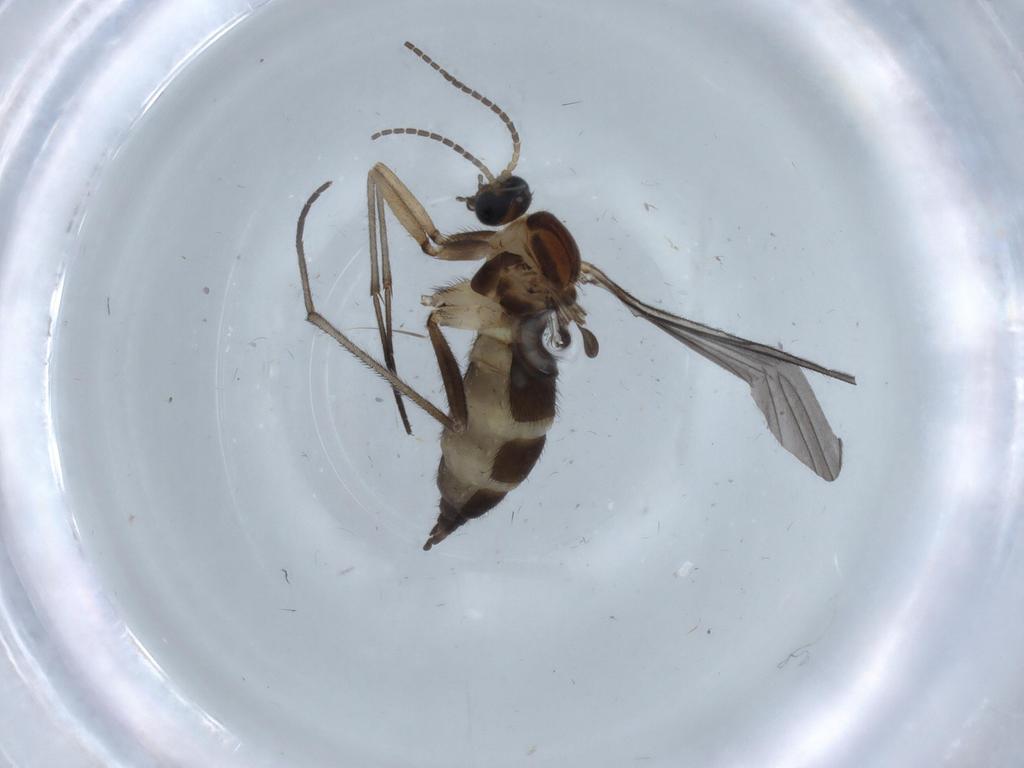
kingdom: Animalia
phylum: Arthropoda
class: Insecta
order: Diptera
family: Sciaridae
